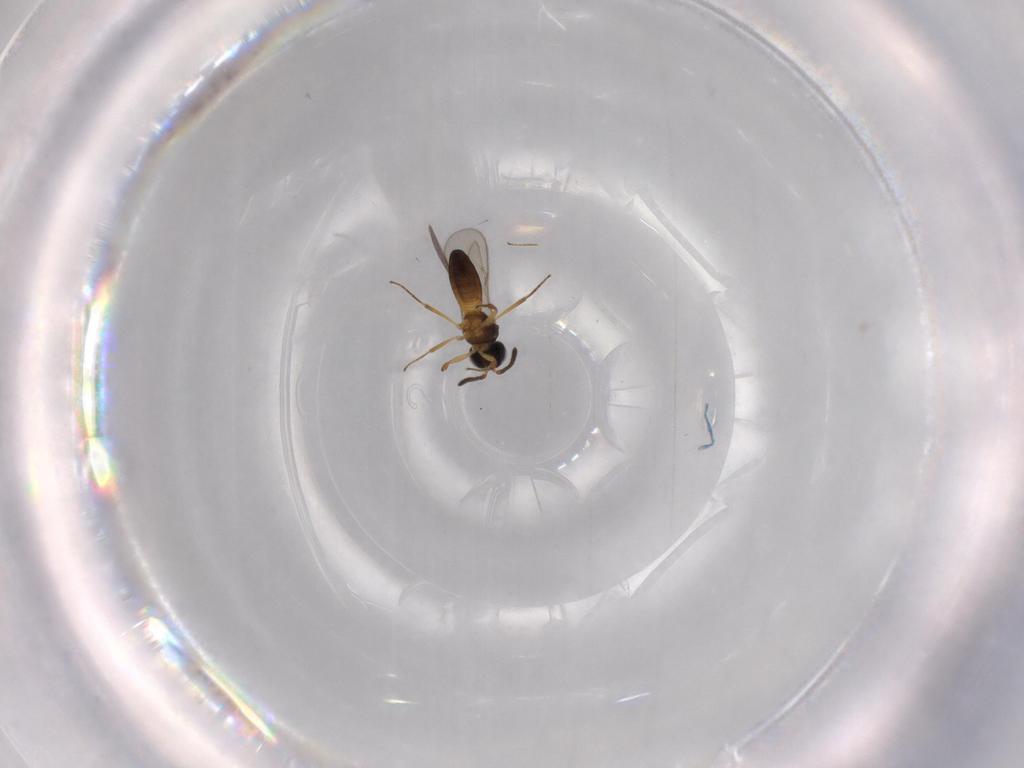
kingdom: Animalia
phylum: Arthropoda
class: Insecta
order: Hymenoptera
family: Scelionidae
